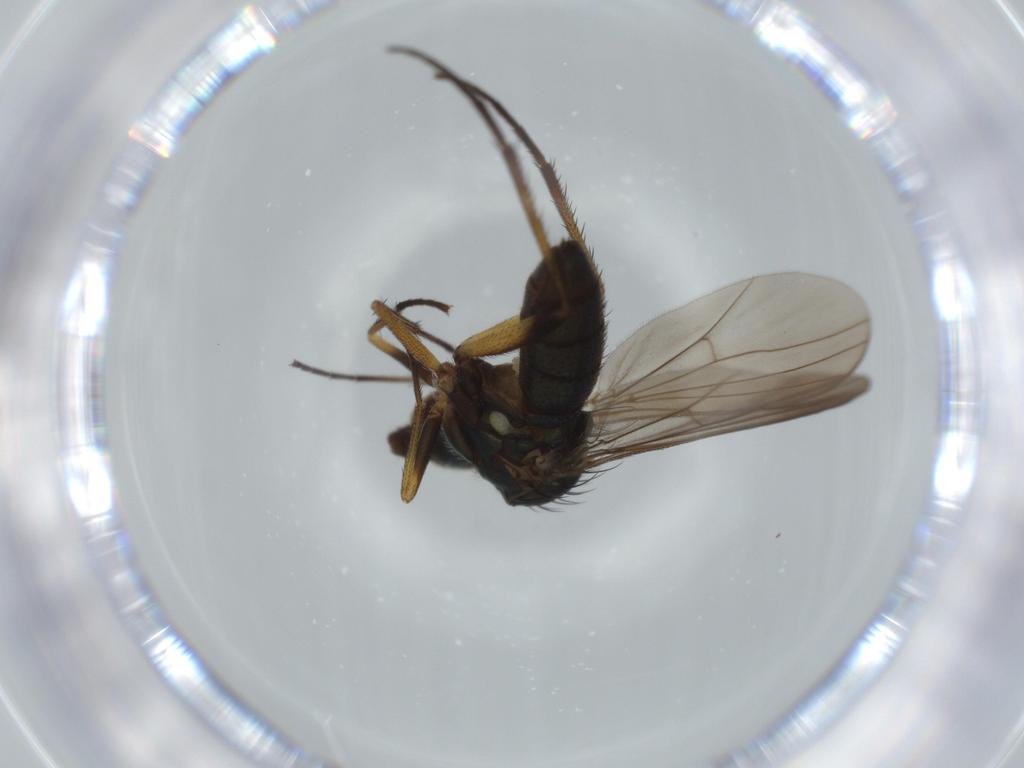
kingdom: Animalia
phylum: Arthropoda
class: Insecta
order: Diptera
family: Dolichopodidae
